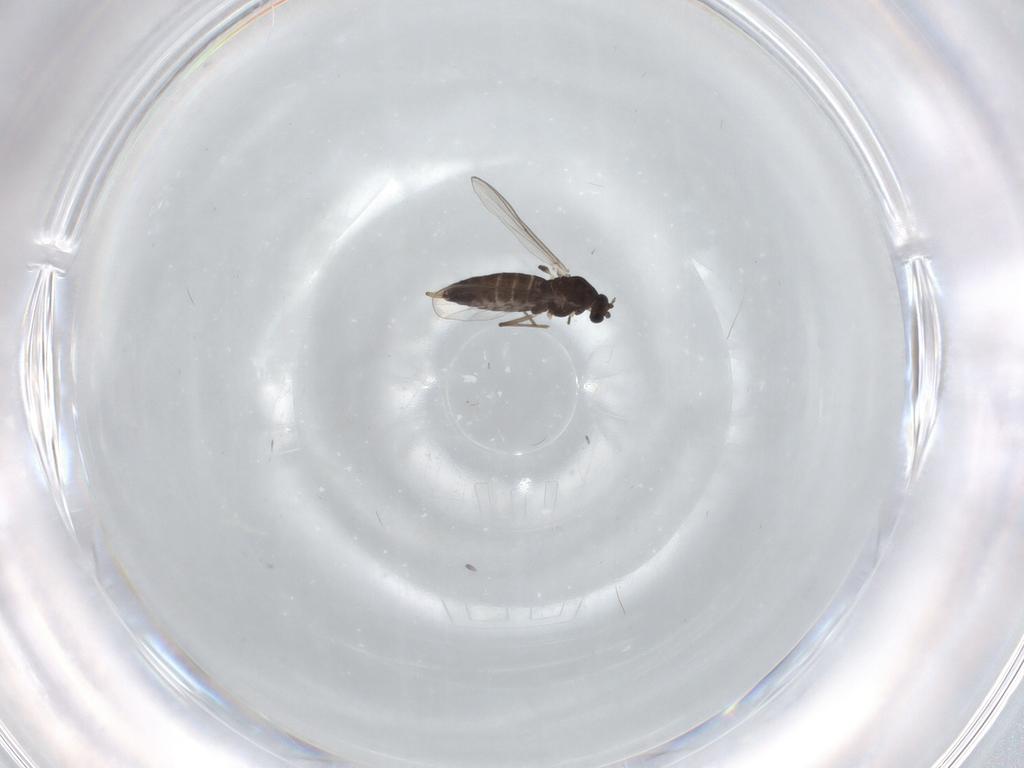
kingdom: Animalia
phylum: Arthropoda
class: Insecta
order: Diptera
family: Chironomidae
